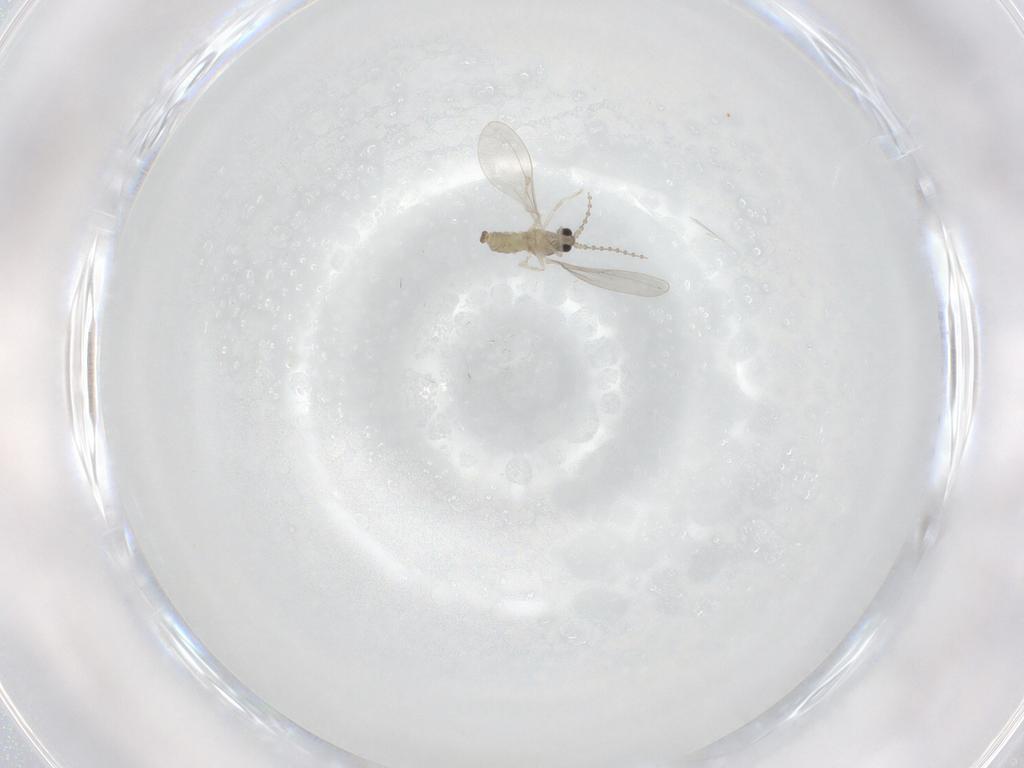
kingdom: Animalia
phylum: Arthropoda
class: Insecta
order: Diptera
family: Cecidomyiidae
